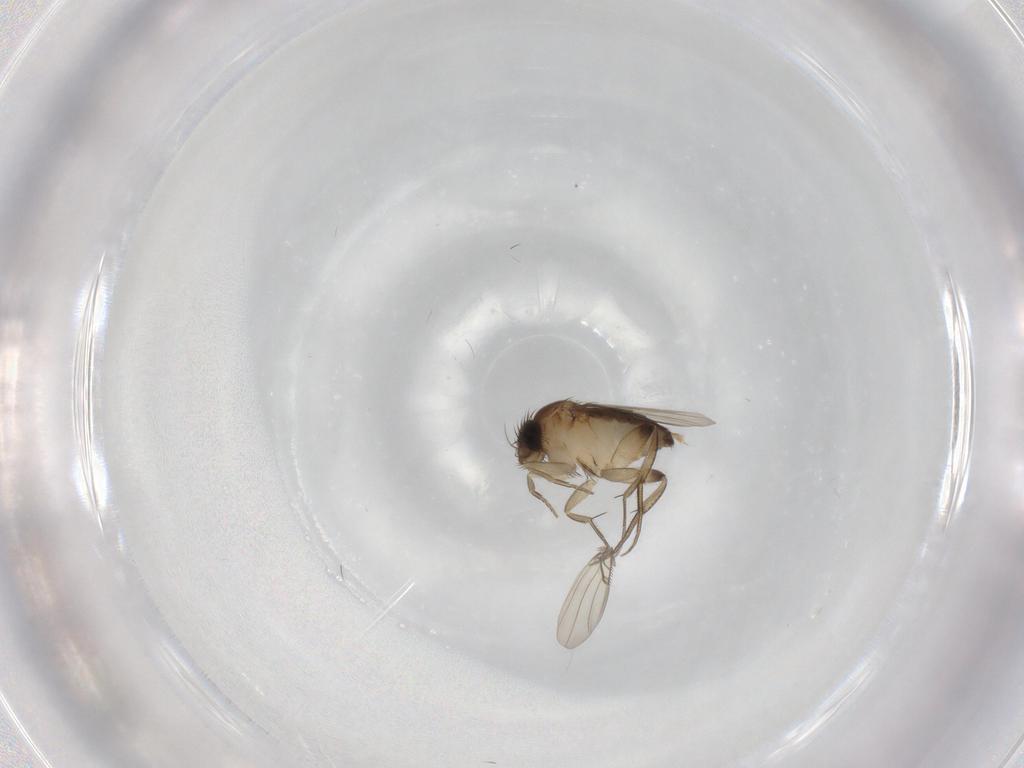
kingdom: Animalia
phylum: Arthropoda
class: Insecta
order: Diptera
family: Phoridae
